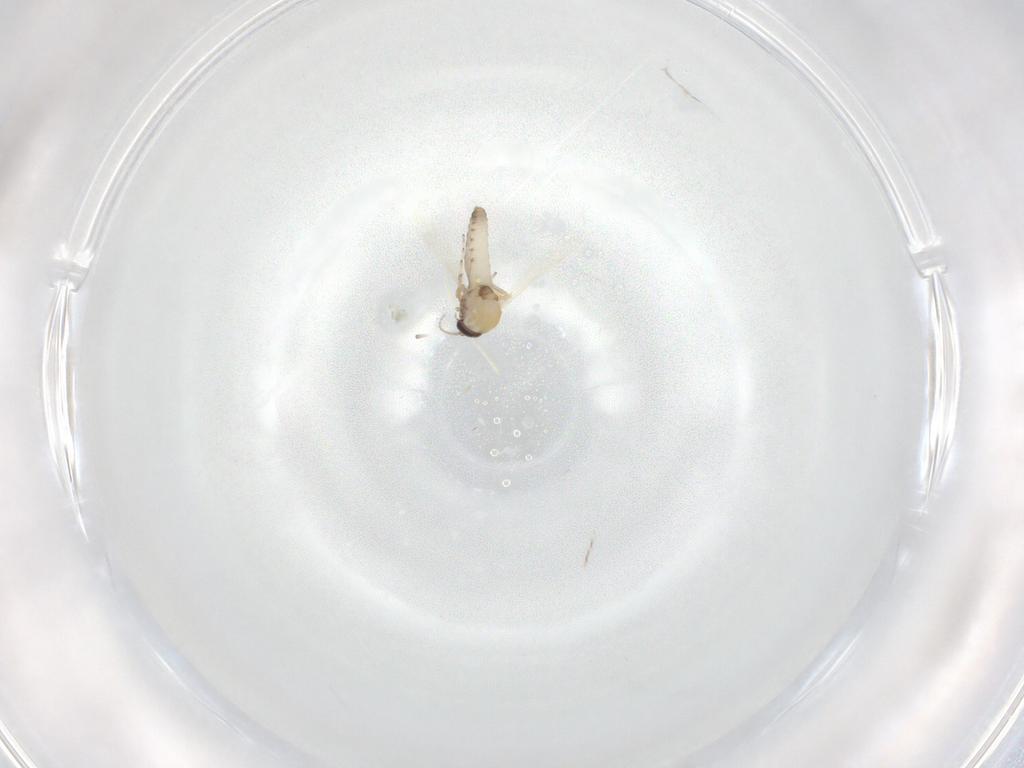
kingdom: Animalia
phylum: Arthropoda
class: Insecta
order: Diptera
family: Ceratopogonidae
